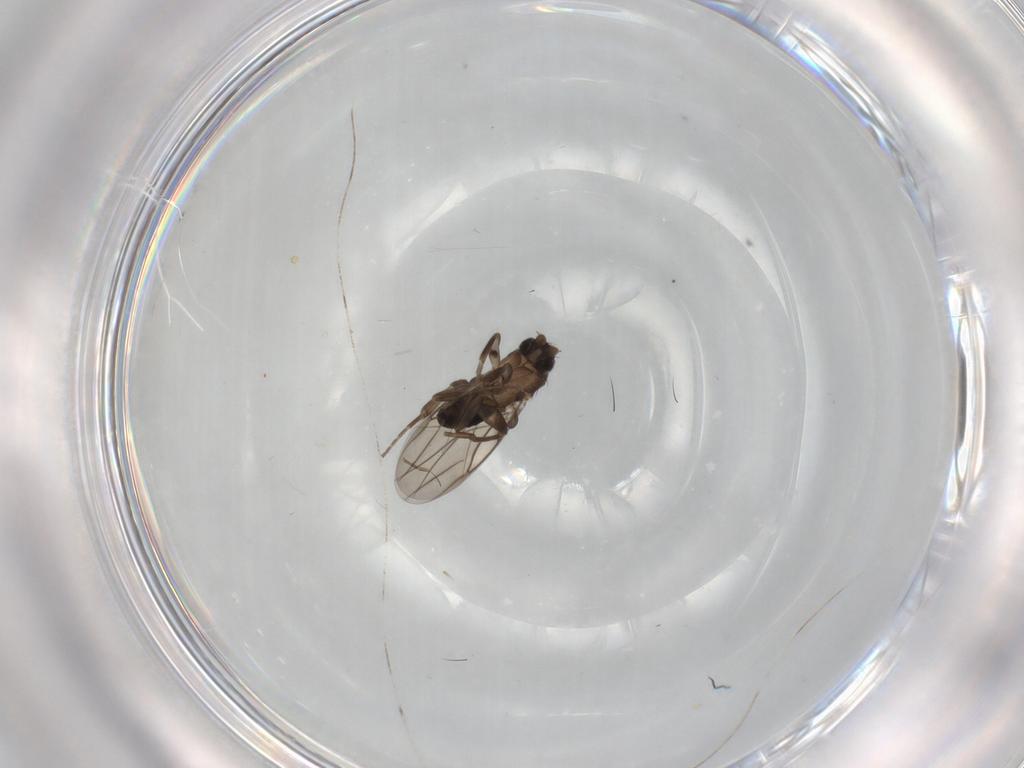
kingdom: Animalia
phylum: Arthropoda
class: Insecta
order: Diptera
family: Phoridae
